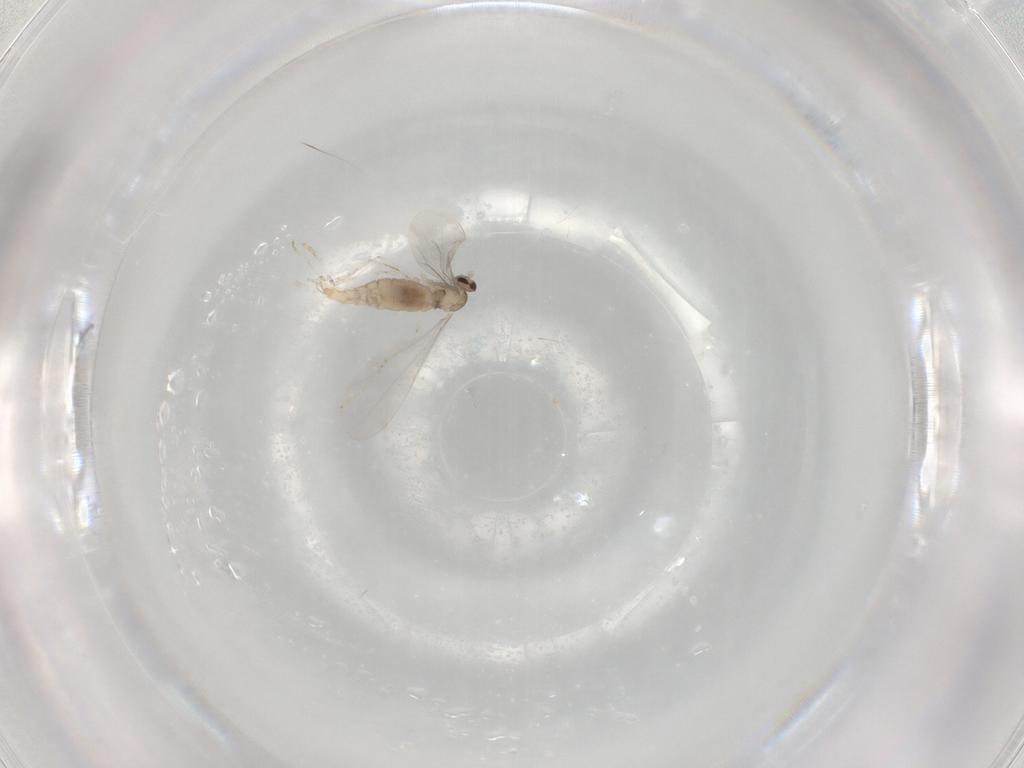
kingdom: Animalia
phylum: Arthropoda
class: Insecta
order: Diptera
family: Cecidomyiidae
